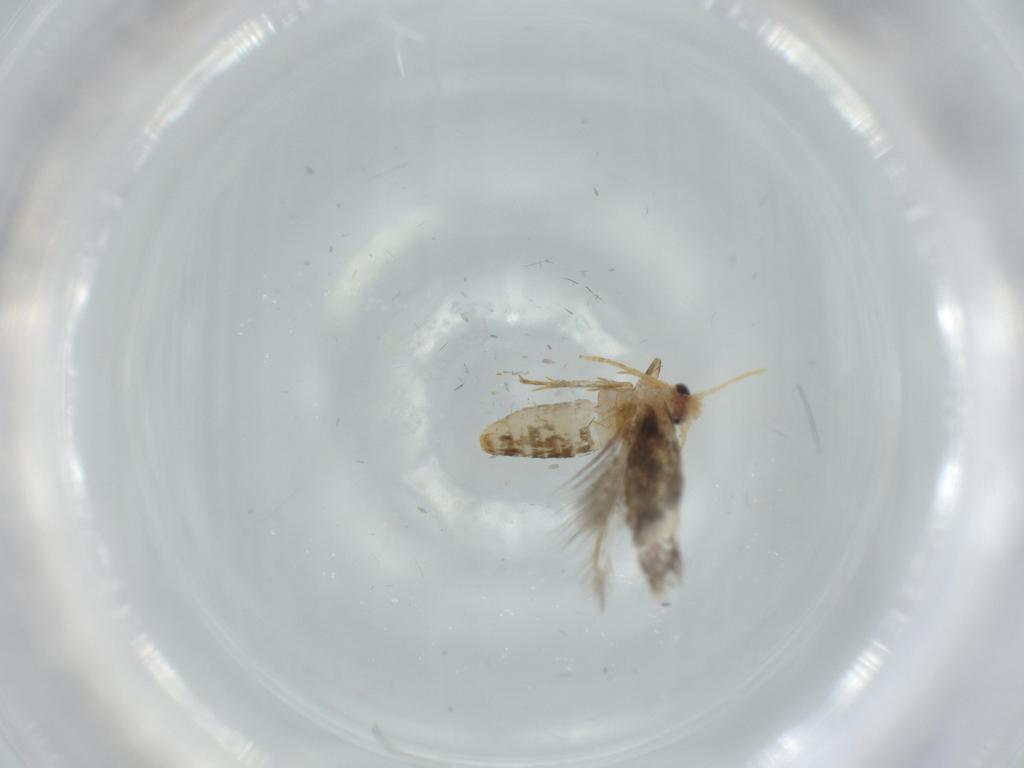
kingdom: Animalia
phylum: Arthropoda
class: Insecta
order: Lepidoptera
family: Copromorphidae
